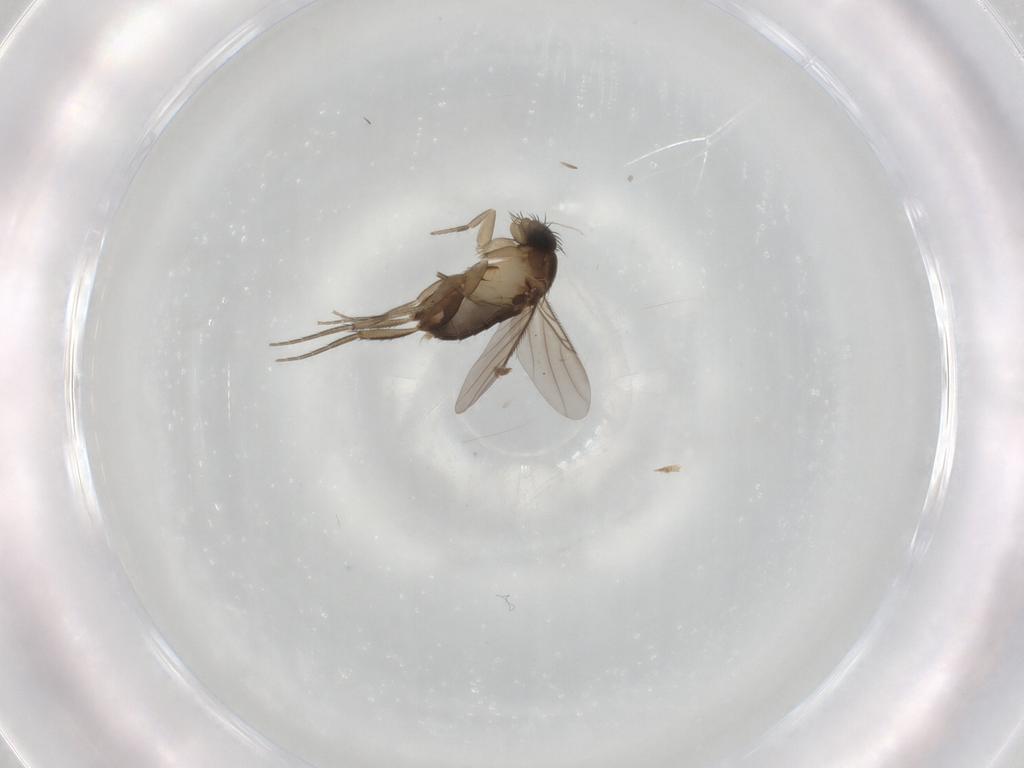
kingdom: Animalia
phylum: Arthropoda
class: Insecta
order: Diptera
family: Phoridae
